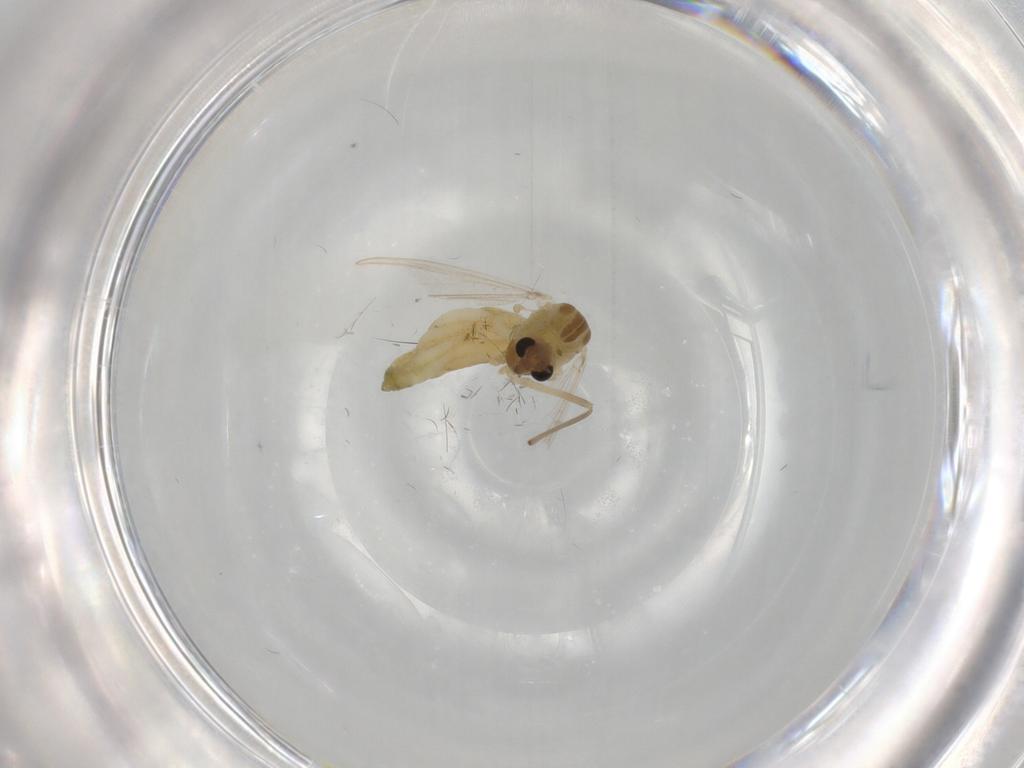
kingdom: Animalia
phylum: Arthropoda
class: Insecta
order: Diptera
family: Chironomidae
